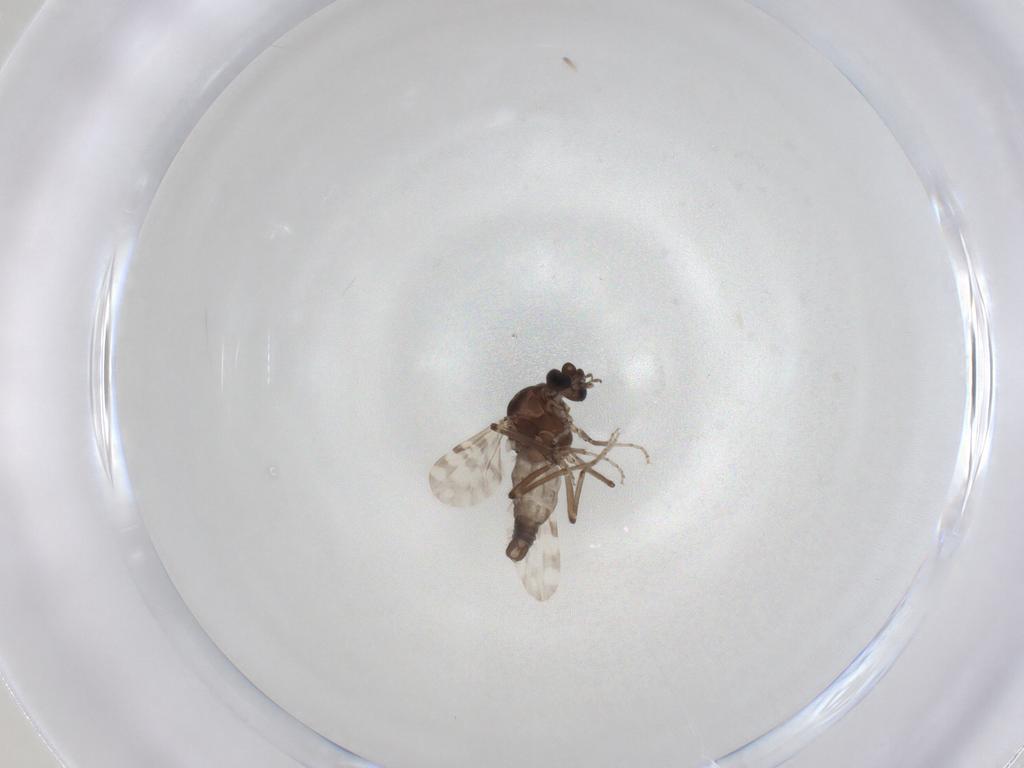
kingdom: Animalia
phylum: Arthropoda
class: Insecta
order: Diptera
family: Ceratopogonidae
